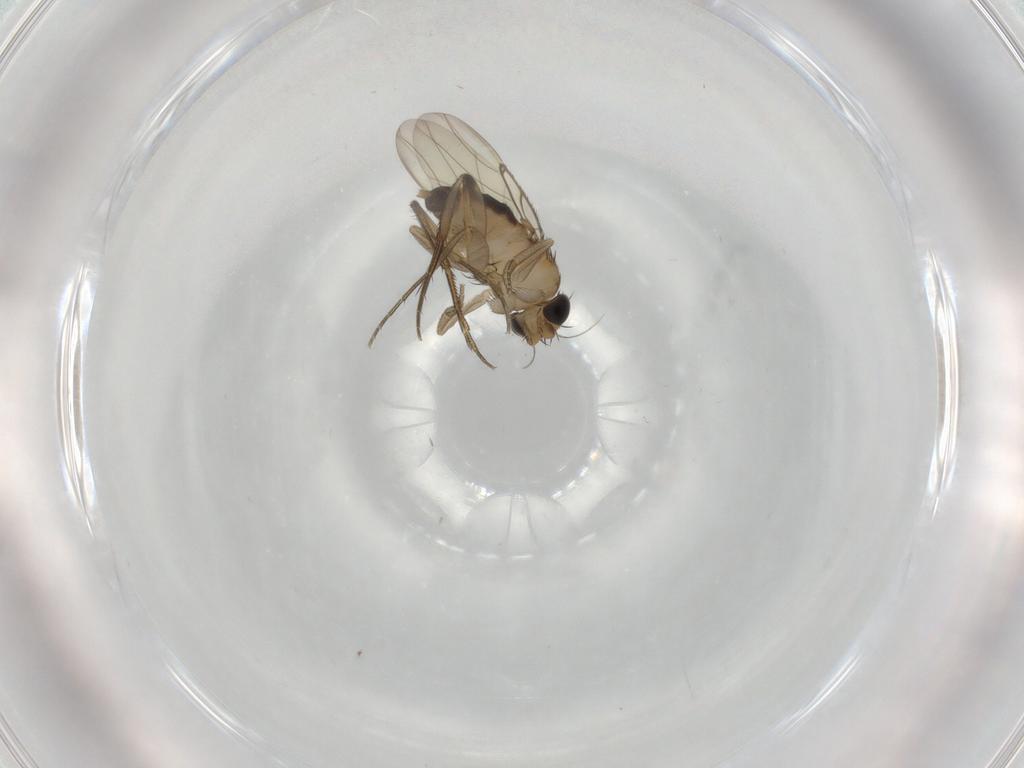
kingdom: Animalia
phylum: Arthropoda
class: Insecta
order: Diptera
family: Phoridae
